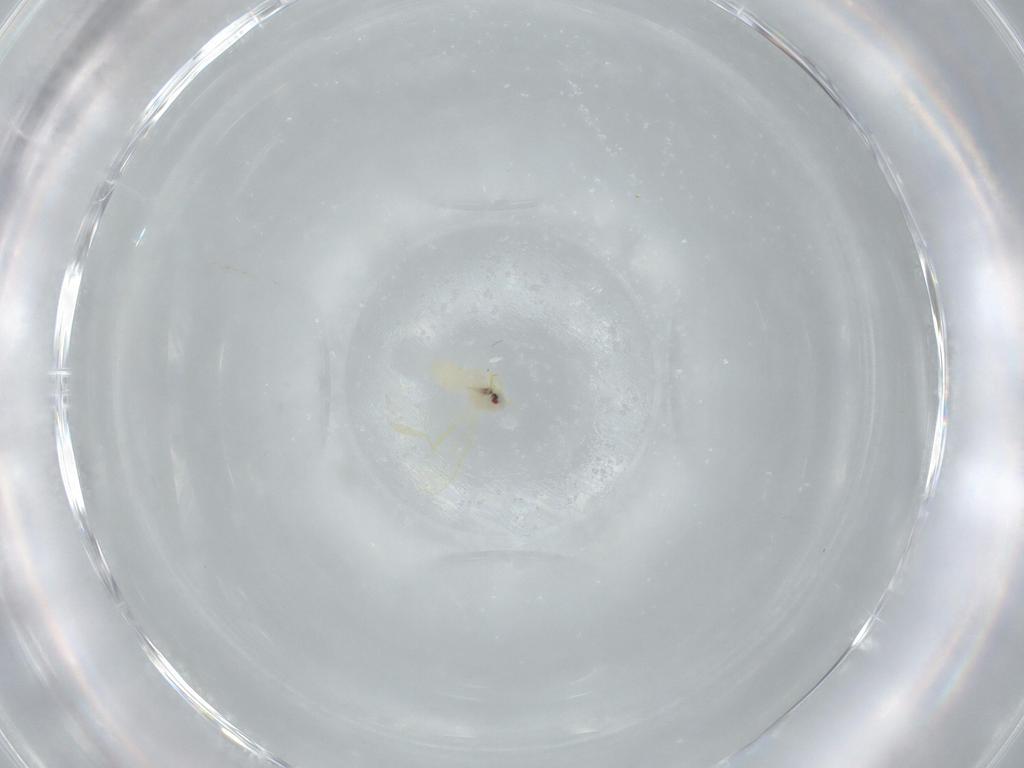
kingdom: Animalia
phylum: Arthropoda
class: Insecta
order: Hemiptera
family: Aleyrodidae
